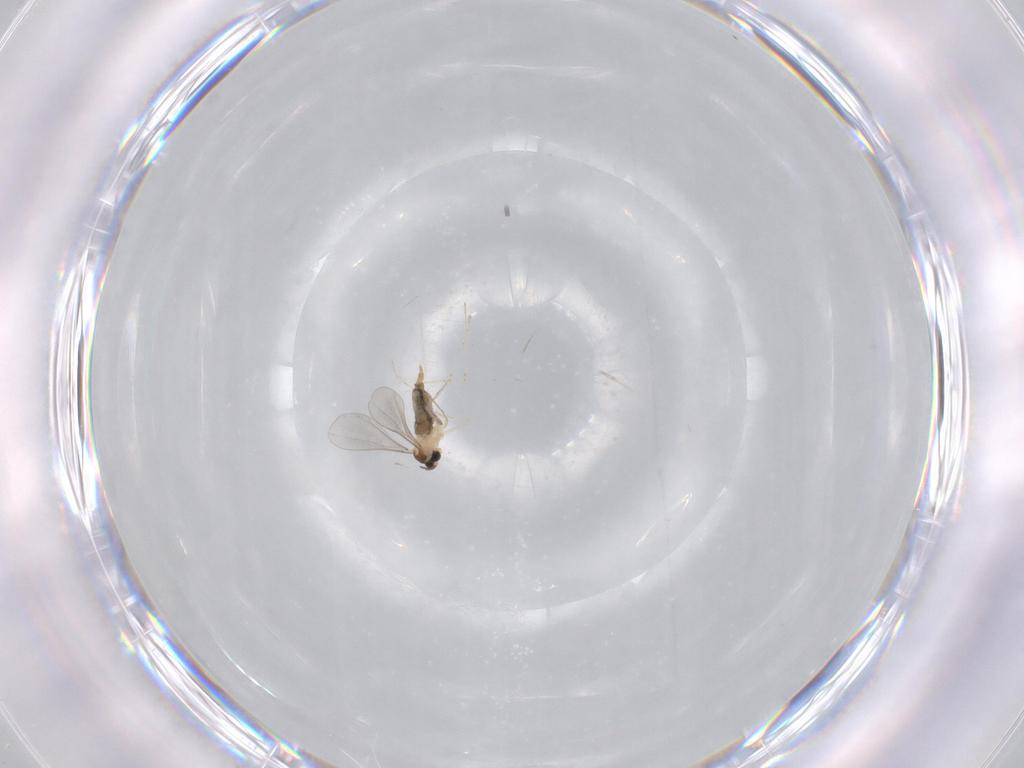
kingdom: Animalia
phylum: Arthropoda
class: Insecta
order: Diptera
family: Cecidomyiidae
